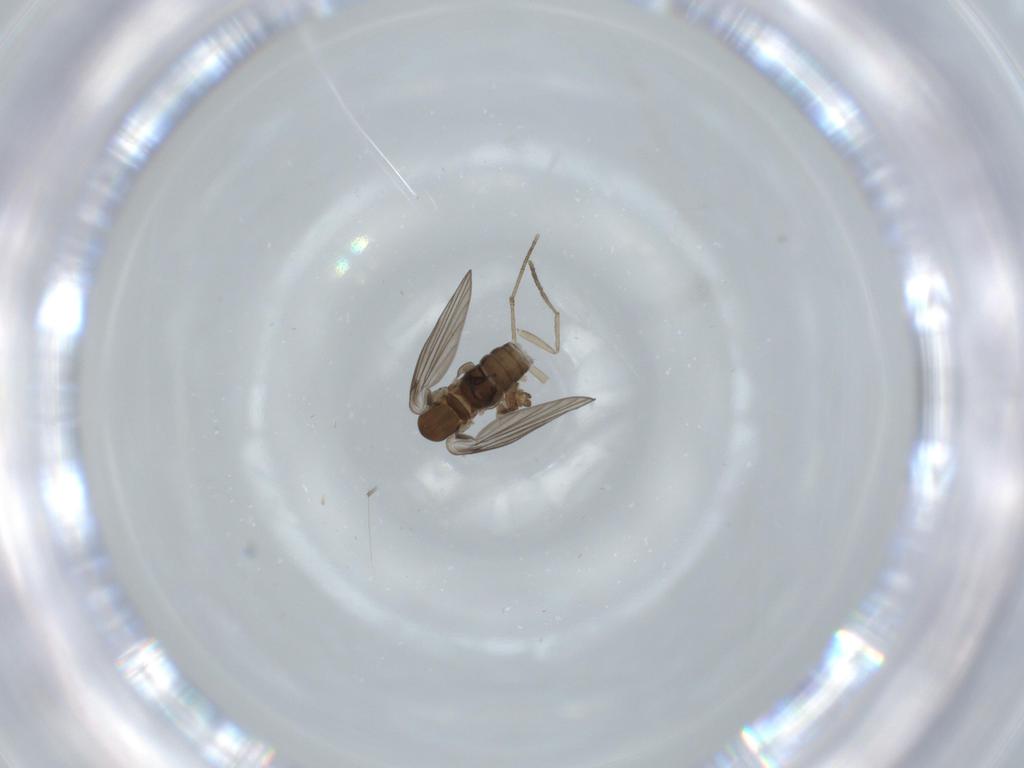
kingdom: Animalia
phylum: Arthropoda
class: Insecta
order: Diptera
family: Psychodidae
